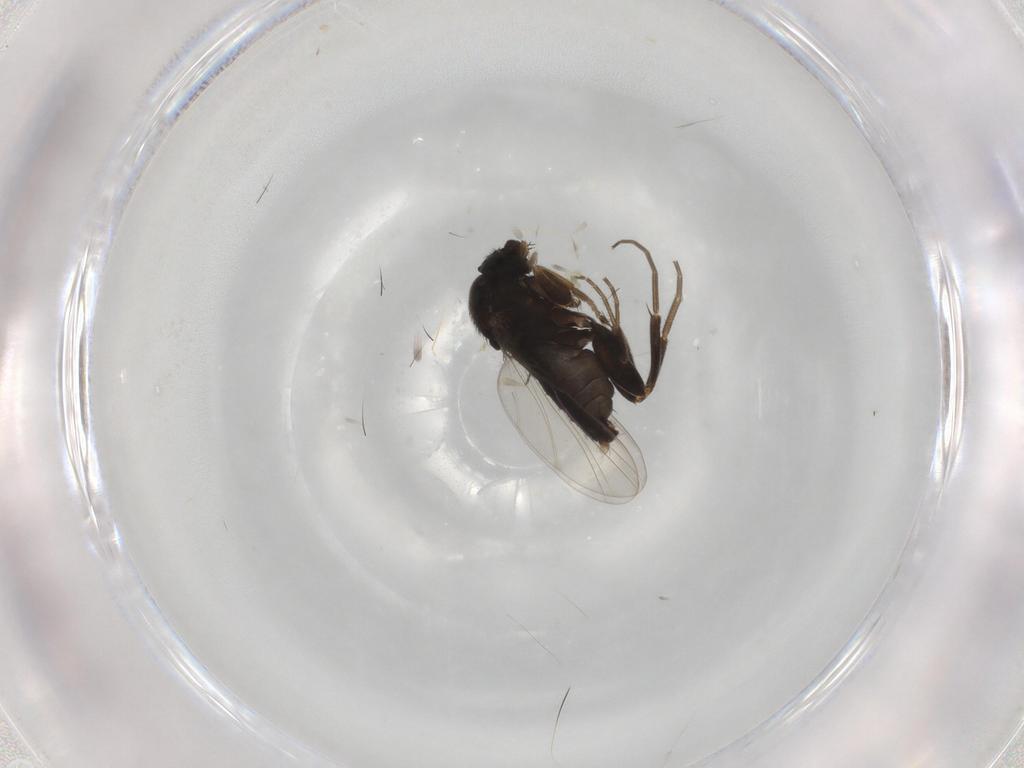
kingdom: Animalia
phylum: Arthropoda
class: Insecta
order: Diptera
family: Phoridae
